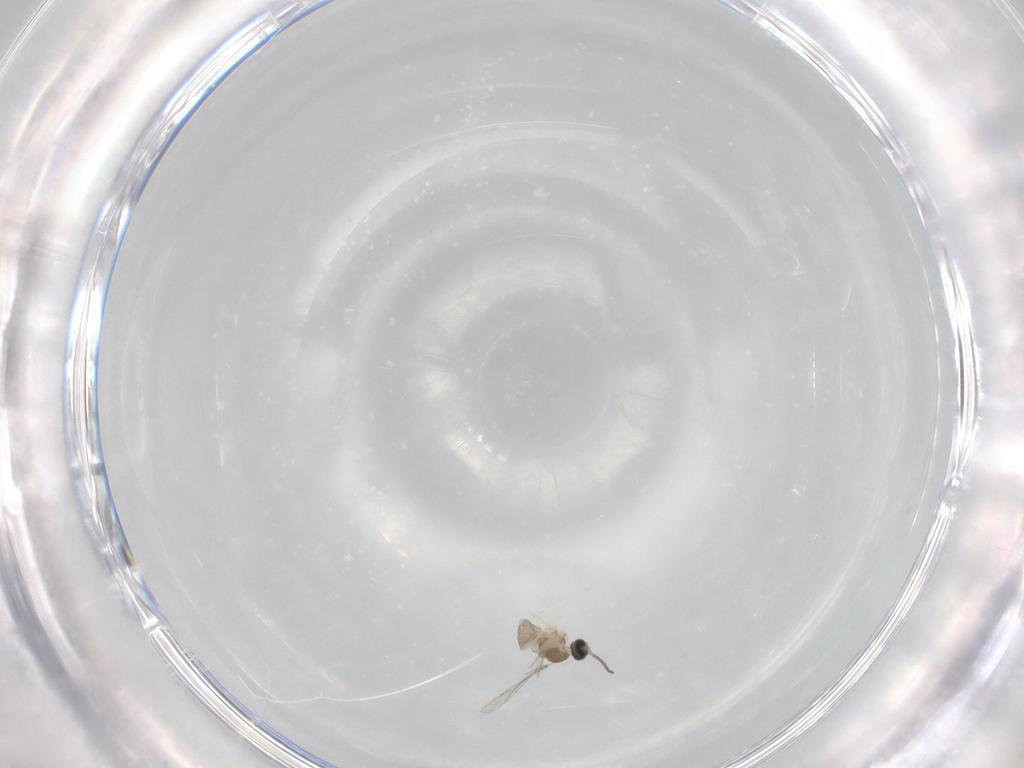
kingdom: Animalia
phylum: Arthropoda
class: Insecta
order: Diptera
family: Cecidomyiidae
